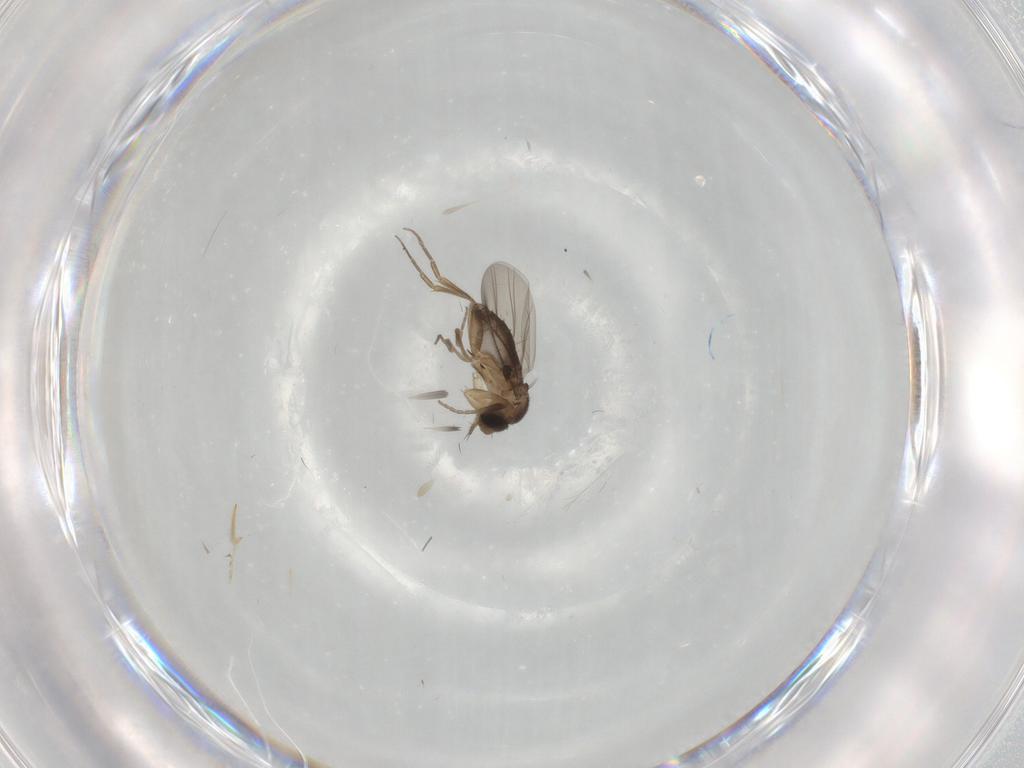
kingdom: Animalia
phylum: Arthropoda
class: Insecta
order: Diptera
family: Phoridae
